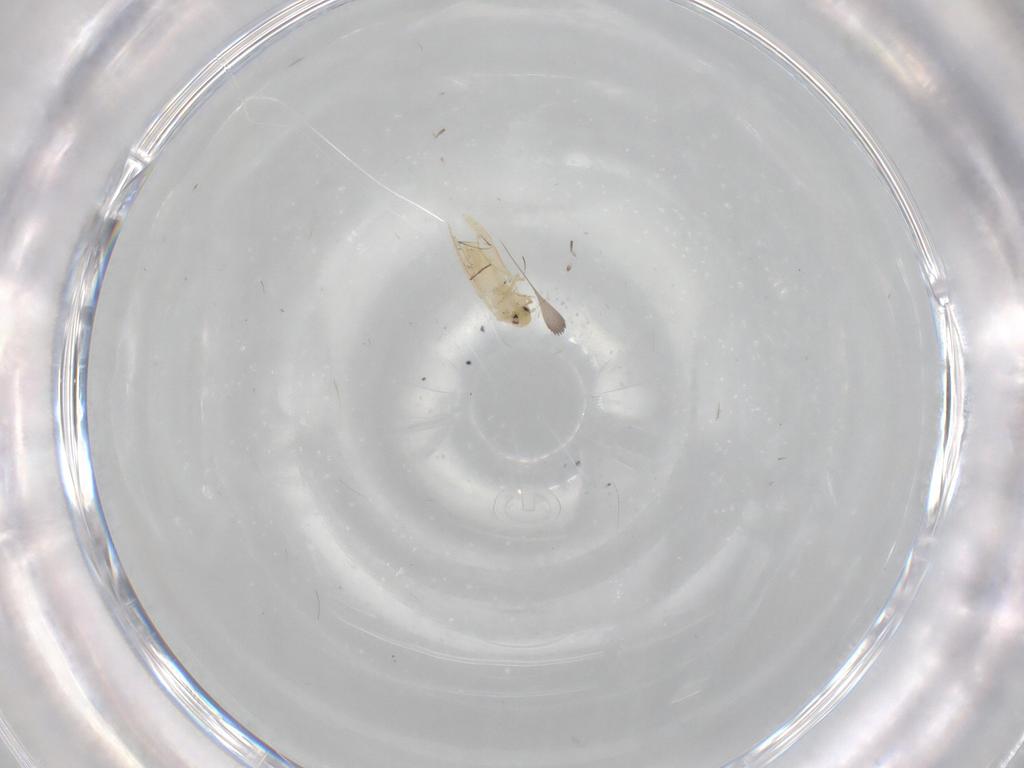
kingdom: Animalia
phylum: Arthropoda
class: Insecta
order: Hemiptera
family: Aleyrodidae
